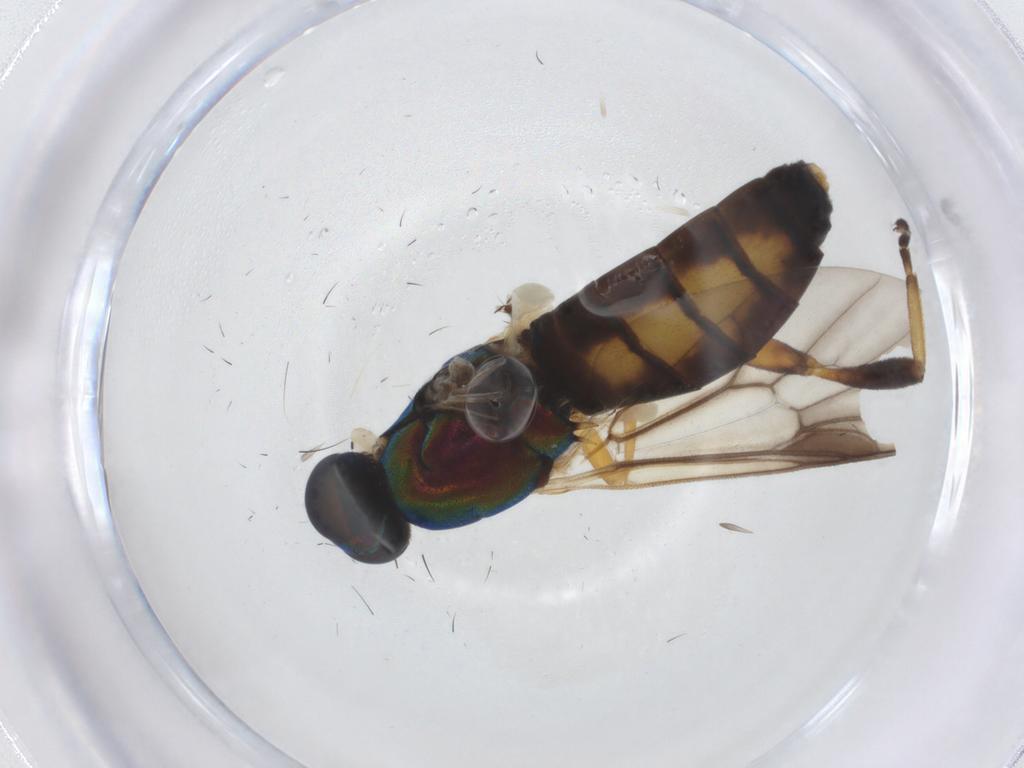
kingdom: Animalia
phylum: Arthropoda
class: Insecta
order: Diptera
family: Stratiomyidae
